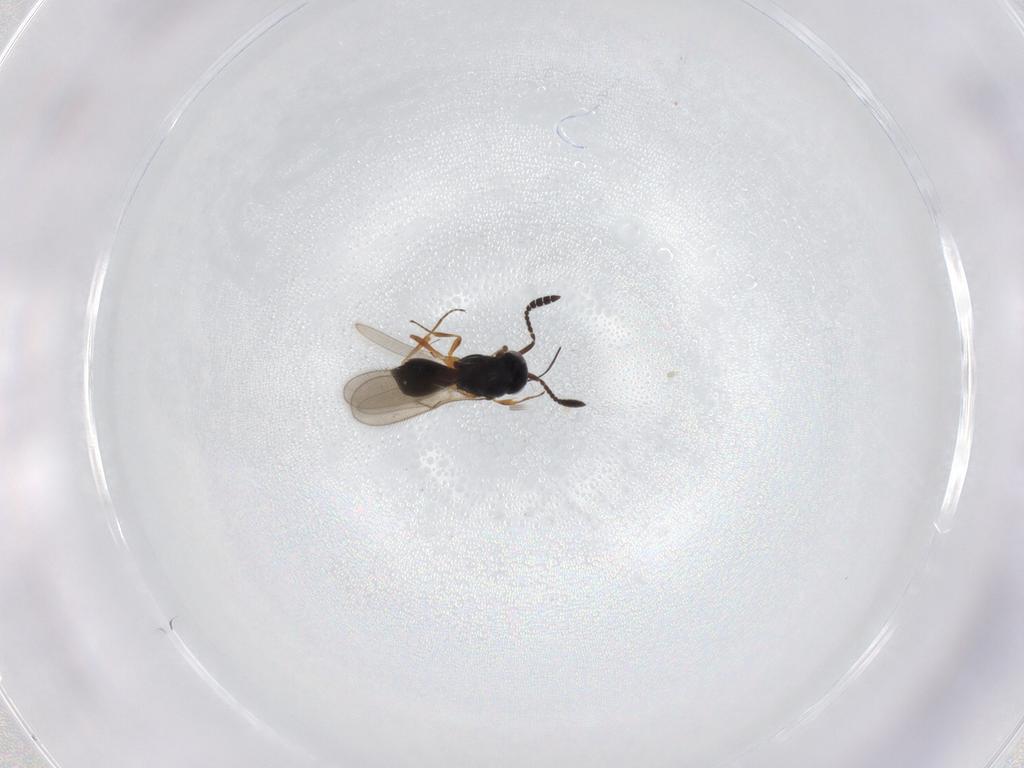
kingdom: Animalia
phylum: Arthropoda
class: Insecta
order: Hymenoptera
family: Scelionidae
